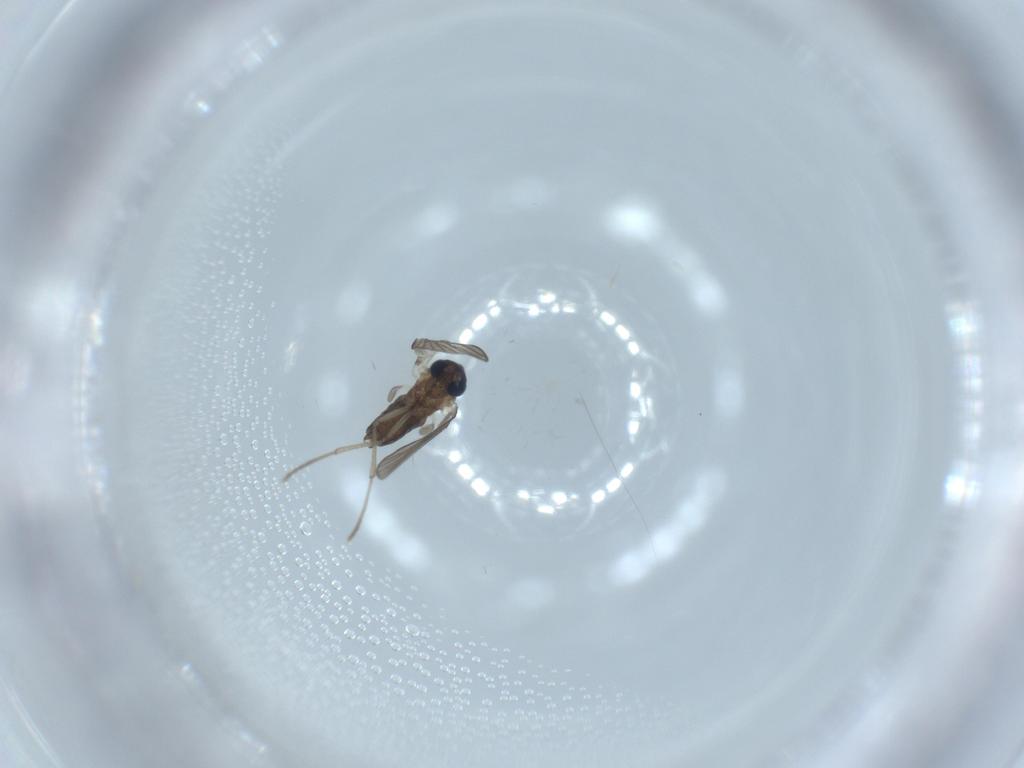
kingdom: Animalia
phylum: Arthropoda
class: Insecta
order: Diptera
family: Psychodidae
